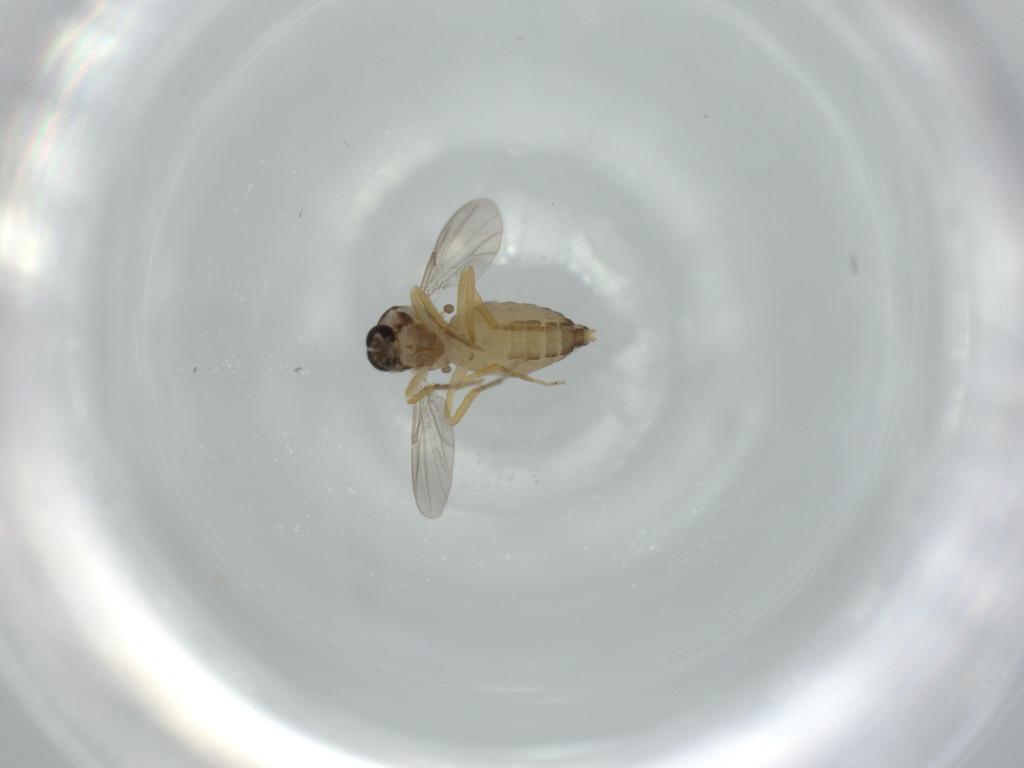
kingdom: Animalia
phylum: Arthropoda
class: Insecta
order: Diptera
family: Ceratopogonidae
